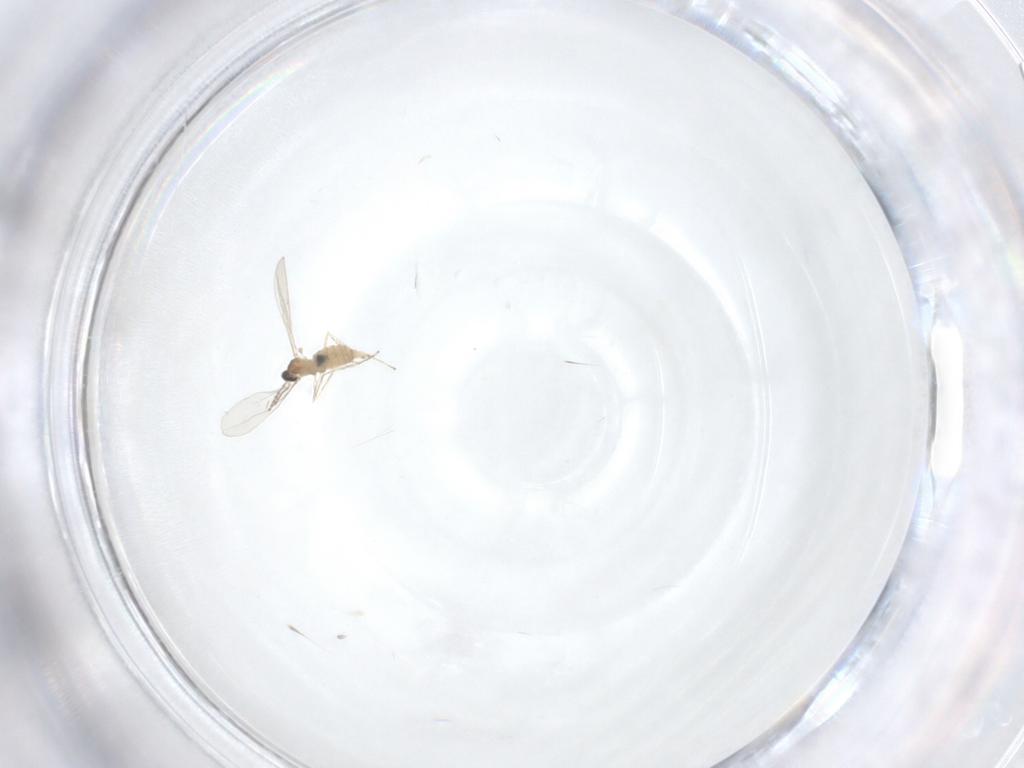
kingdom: Animalia
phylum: Arthropoda
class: Insecta
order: Diptera
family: Cecidomyiidae
